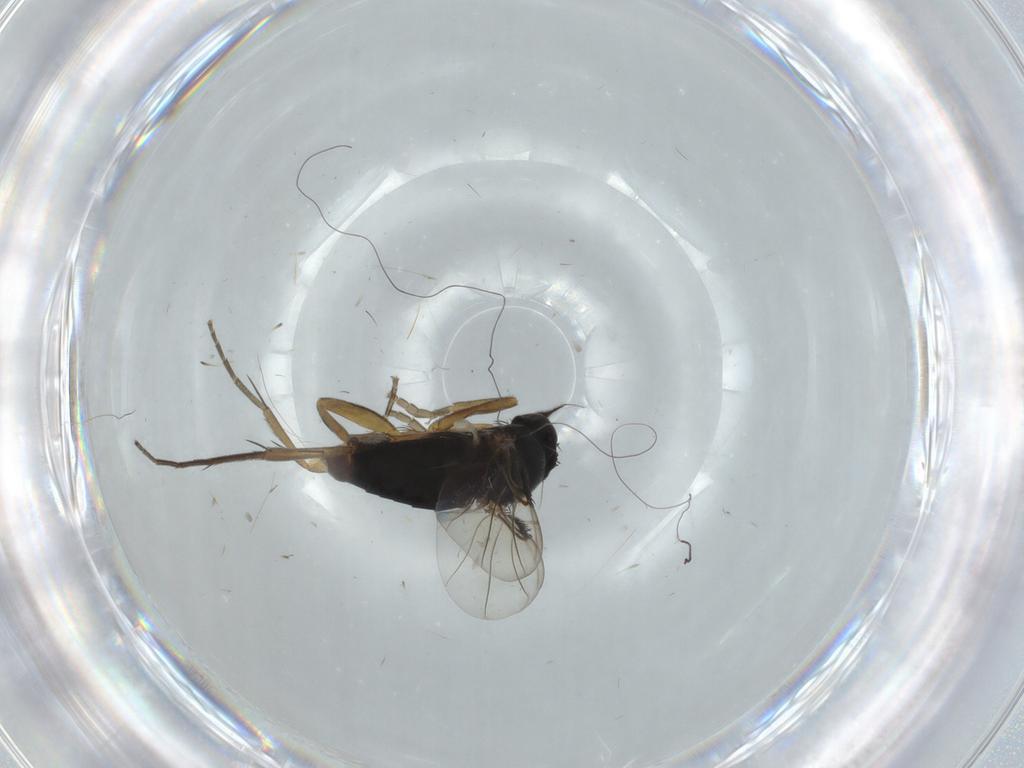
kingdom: Animalia
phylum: Arthropoda
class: Insecta
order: Diptera
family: Phoridae
